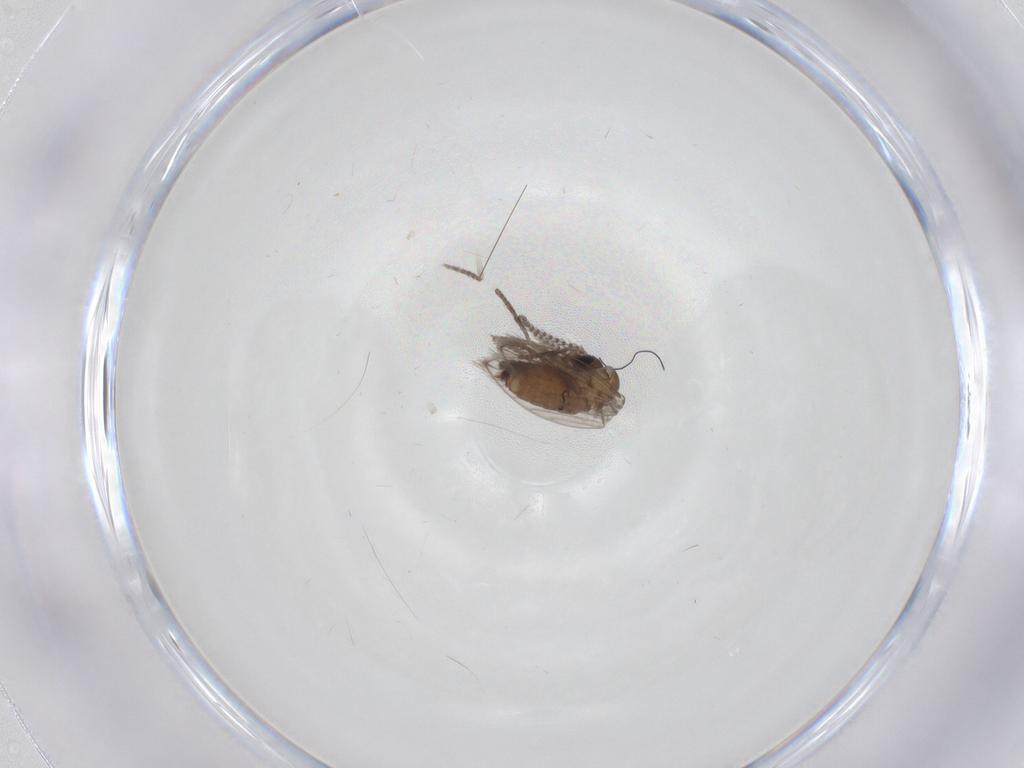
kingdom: Animalia
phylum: Arthropoda
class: Insecta
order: Diptera
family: Psychodidae
